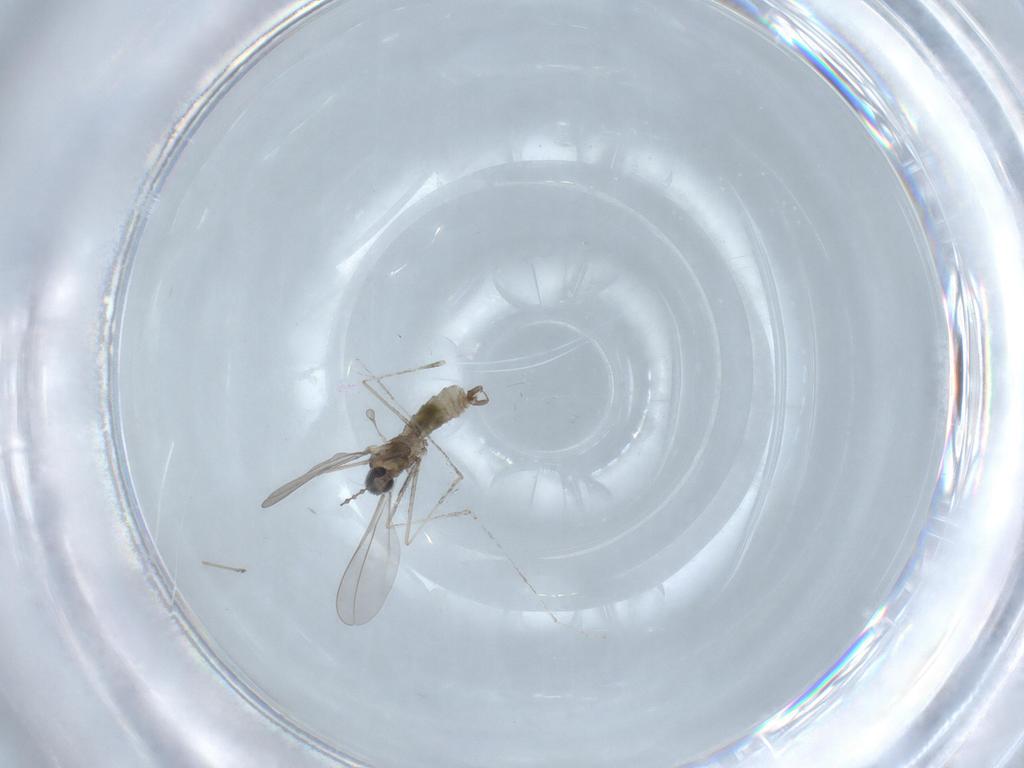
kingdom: Animalia
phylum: Arthropoda
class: Insecta
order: Diptera
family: Cecidomyiidae
